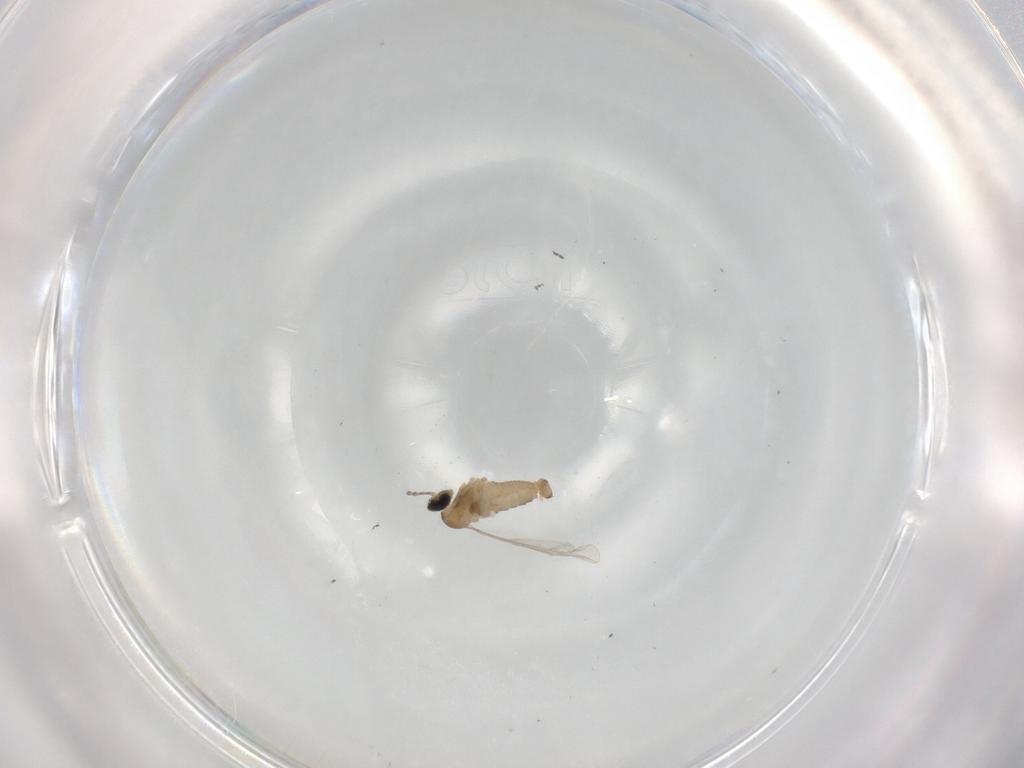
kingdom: Animalia
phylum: Arthropoda
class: Insecta
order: Diptera
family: Cecidomyiidae
